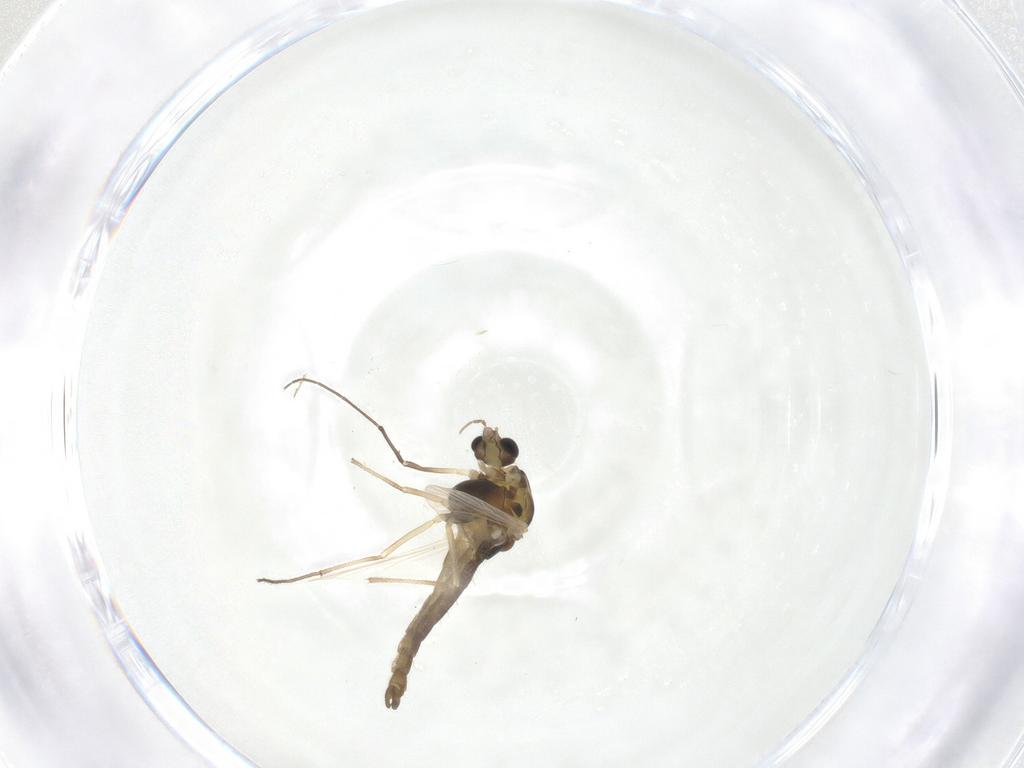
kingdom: Animalia
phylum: Arthropoda
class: Insecta
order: Diptera
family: Chironomidae
